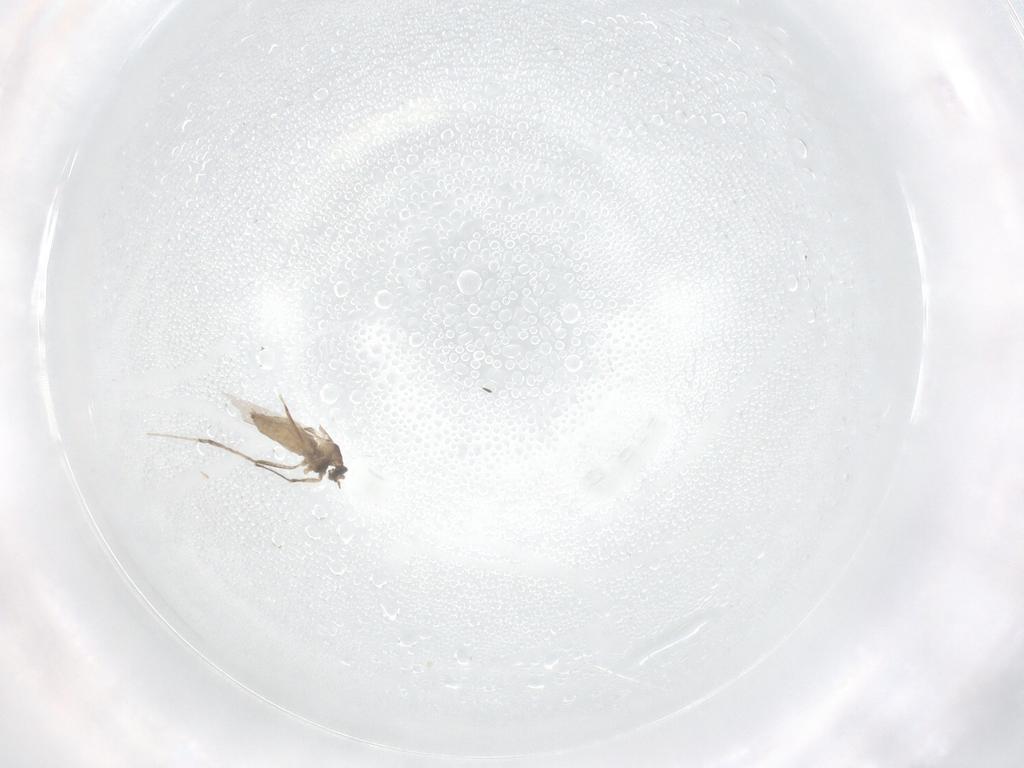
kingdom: Animalia
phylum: Arthropoda
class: Insecta
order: Diptera
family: Cecidomyiidae
